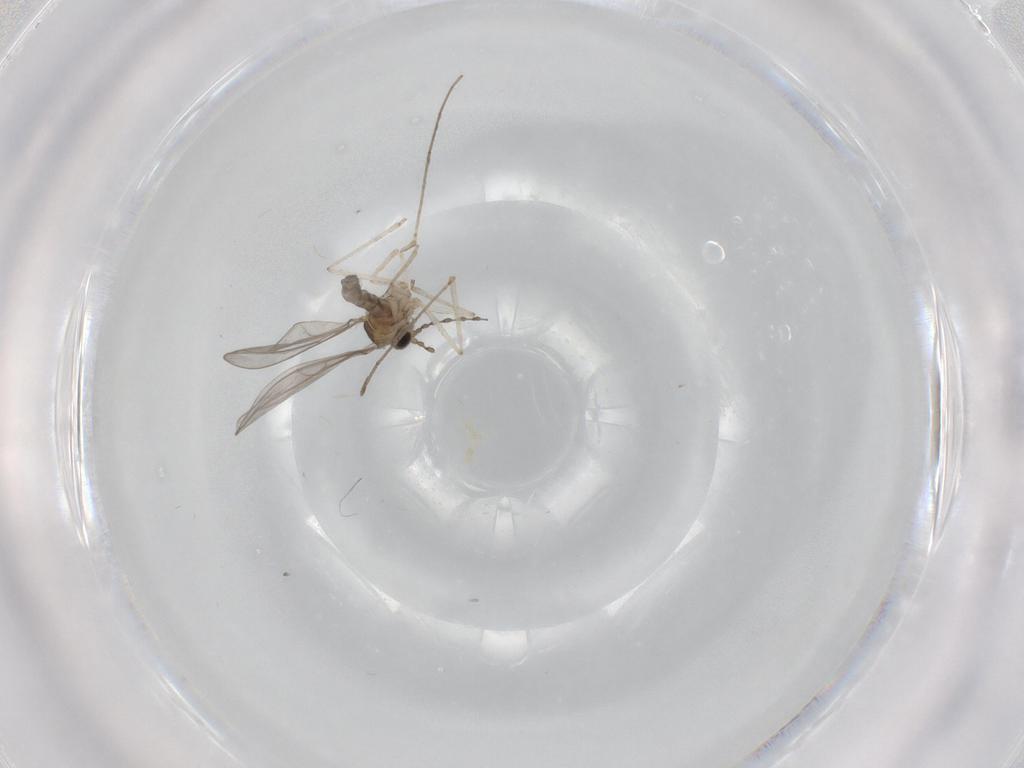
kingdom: Animalia
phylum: Arthropoda
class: Insecta
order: Diptera
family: Cecidomyiidae
